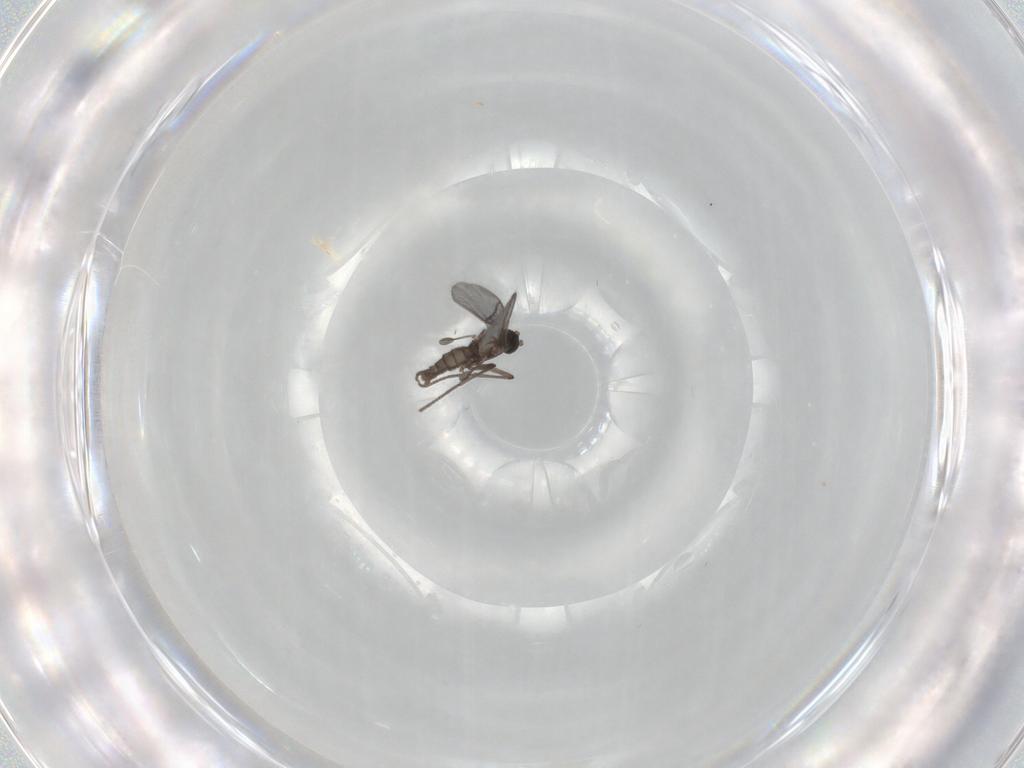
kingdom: Animalia
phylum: Arthropoda
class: Insecta
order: Diptera
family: Sciaridae
